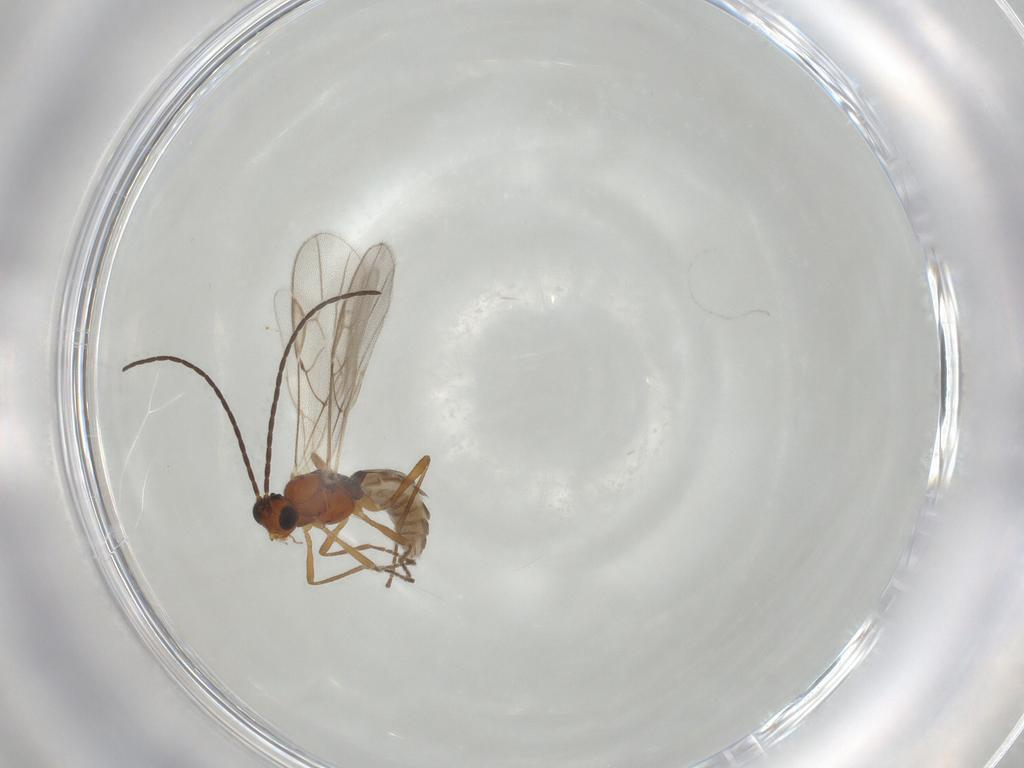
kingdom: Animalia
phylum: Arthropoda
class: Insecta
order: Hymenoptera
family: Braconidae
